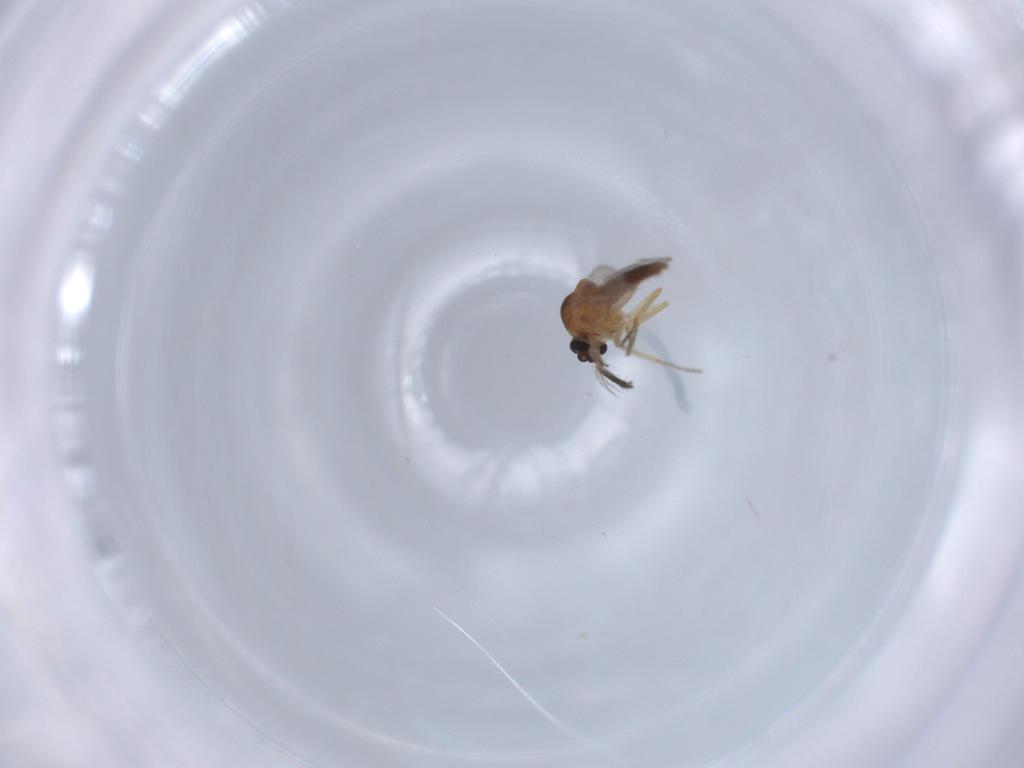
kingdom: Animalia
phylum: Arthropoda
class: Insecta
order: Diptera
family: Ceratopogonidae
